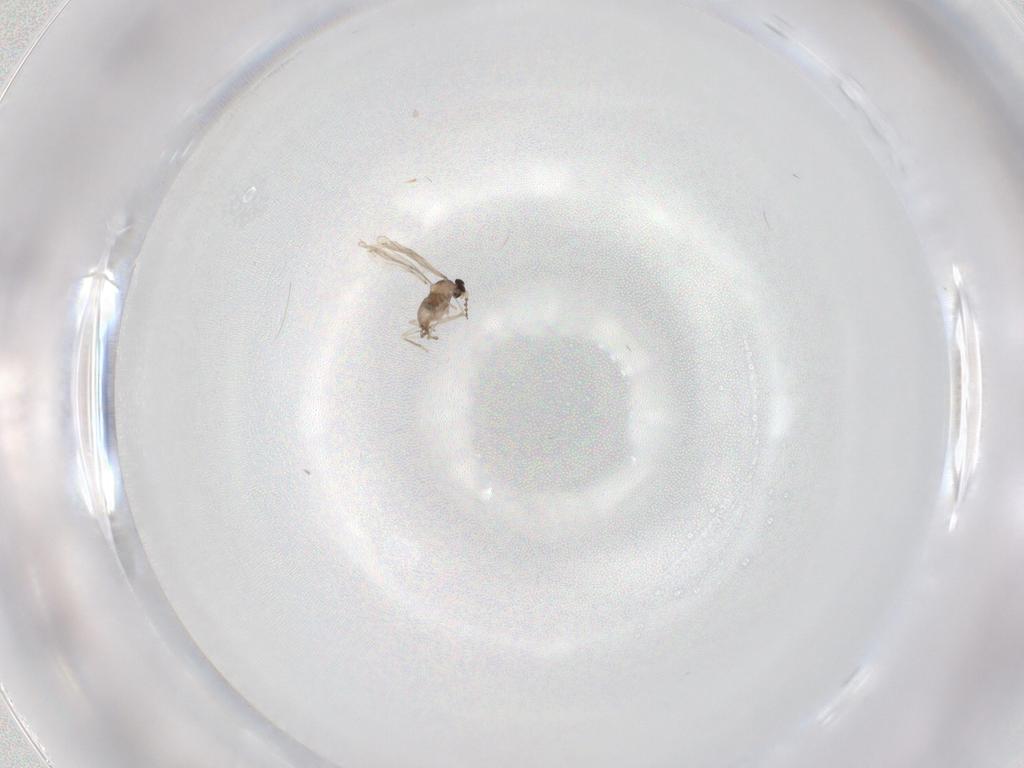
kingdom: Animalia
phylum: Arthropoda
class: Insecta
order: Diptera
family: Cecidomyiidae
